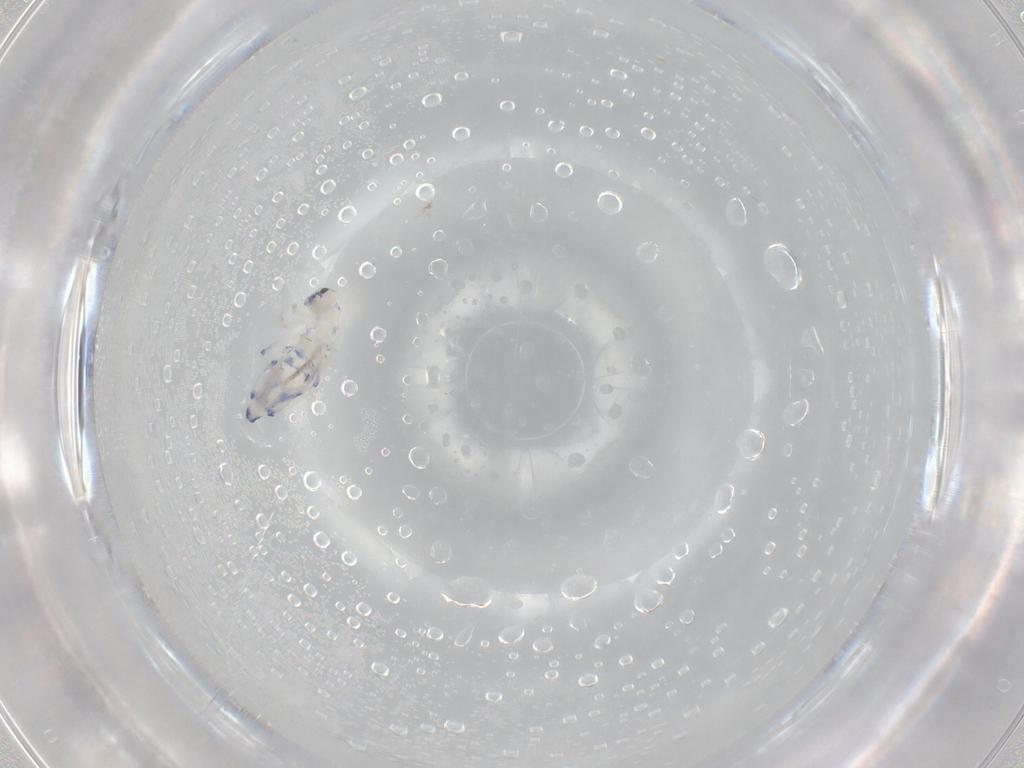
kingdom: Animalia
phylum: Arthropoda
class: Collembola
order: Entomobryomorpha
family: Entomobryidae
